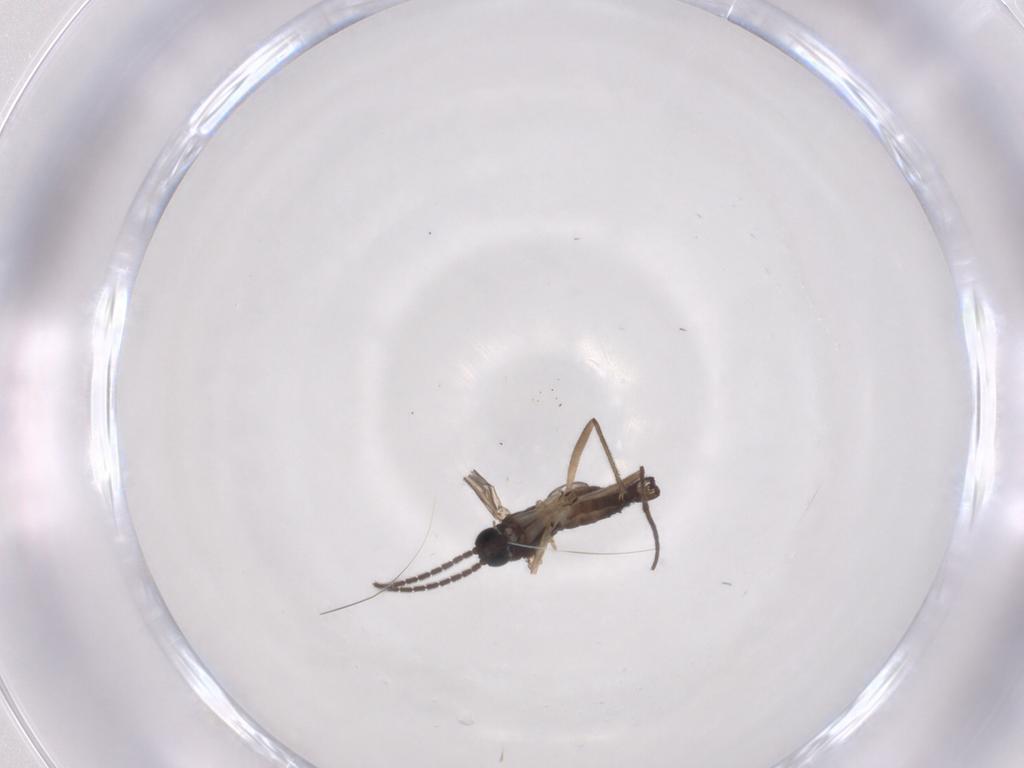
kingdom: Animalia
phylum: Arthropoda
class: Insecta
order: Diptera
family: Sciaridae
